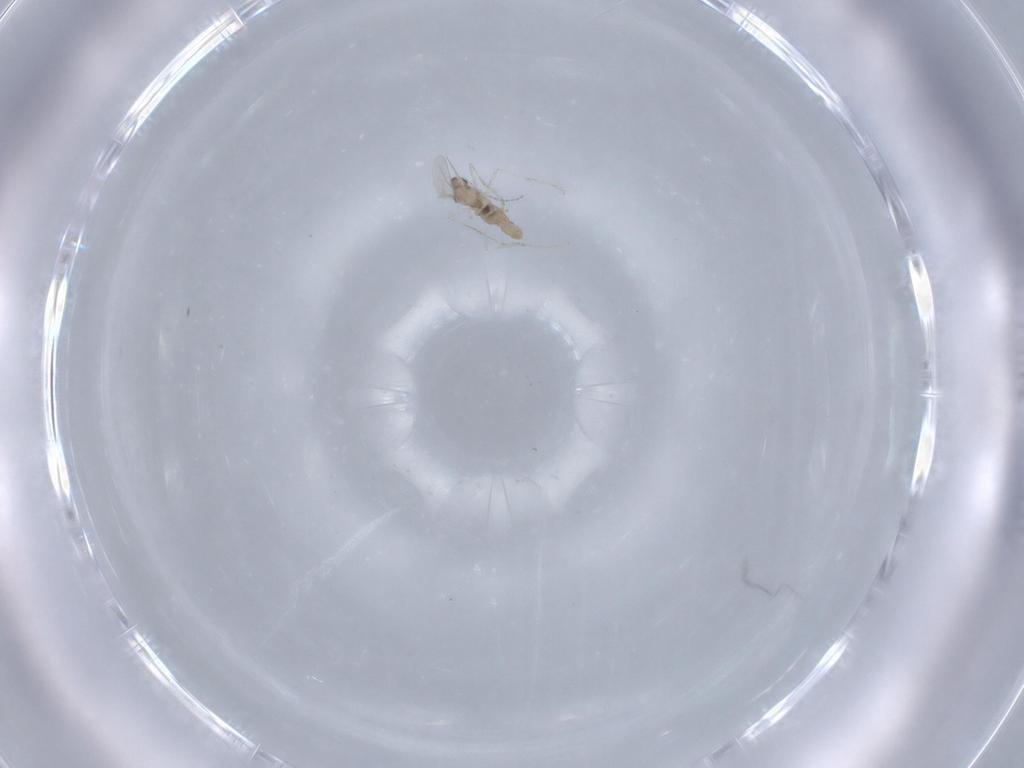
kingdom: Animalia
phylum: Arthropoda
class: Insecta
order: Diptera
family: Cecidomyiidae
